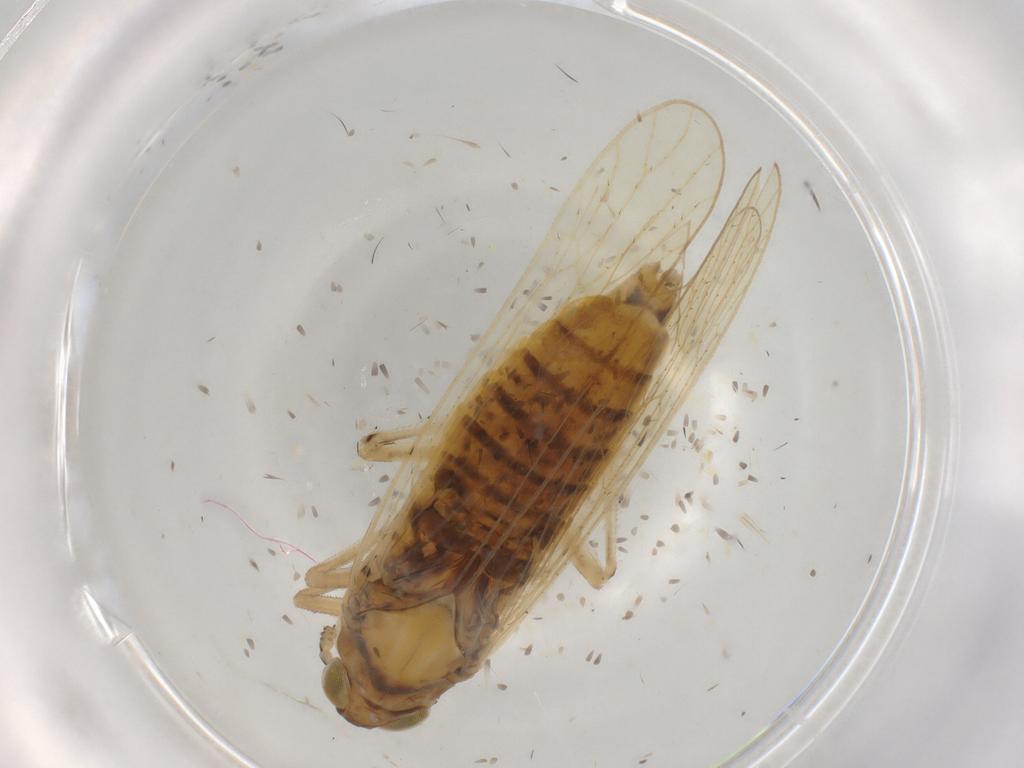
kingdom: Animalia
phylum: Arthropoda
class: Insecta
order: Hemiptera
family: Delphacidae
